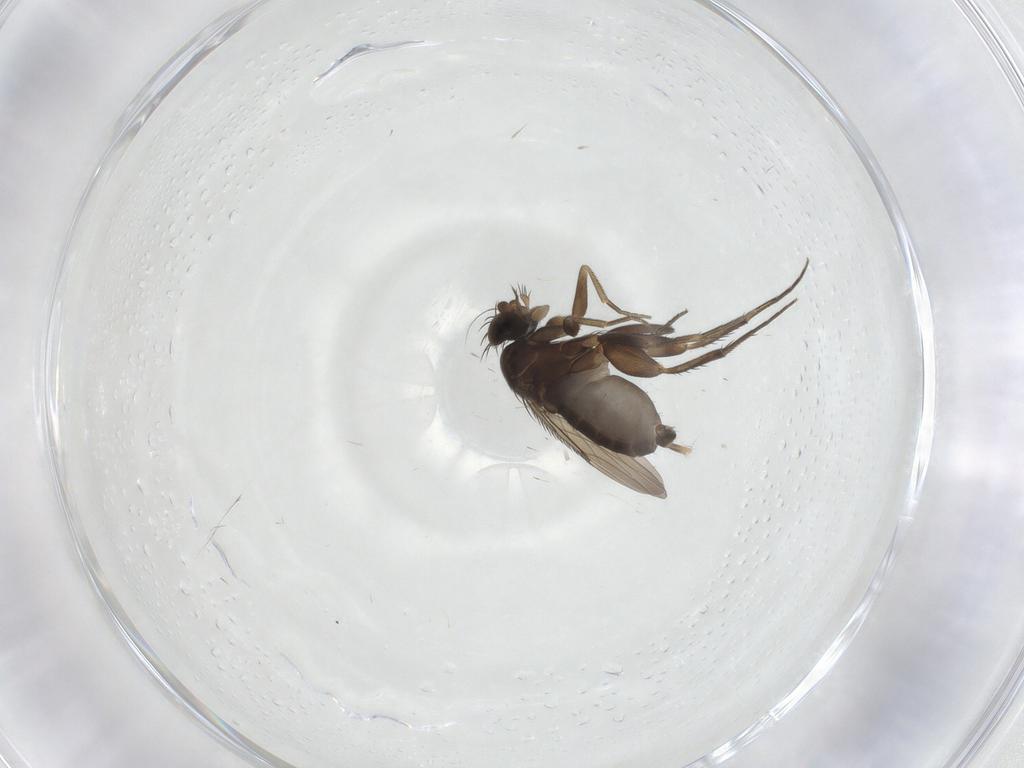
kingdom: Animalia
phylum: Arthropoda
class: Insecta
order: Diptera
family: Phoridae
